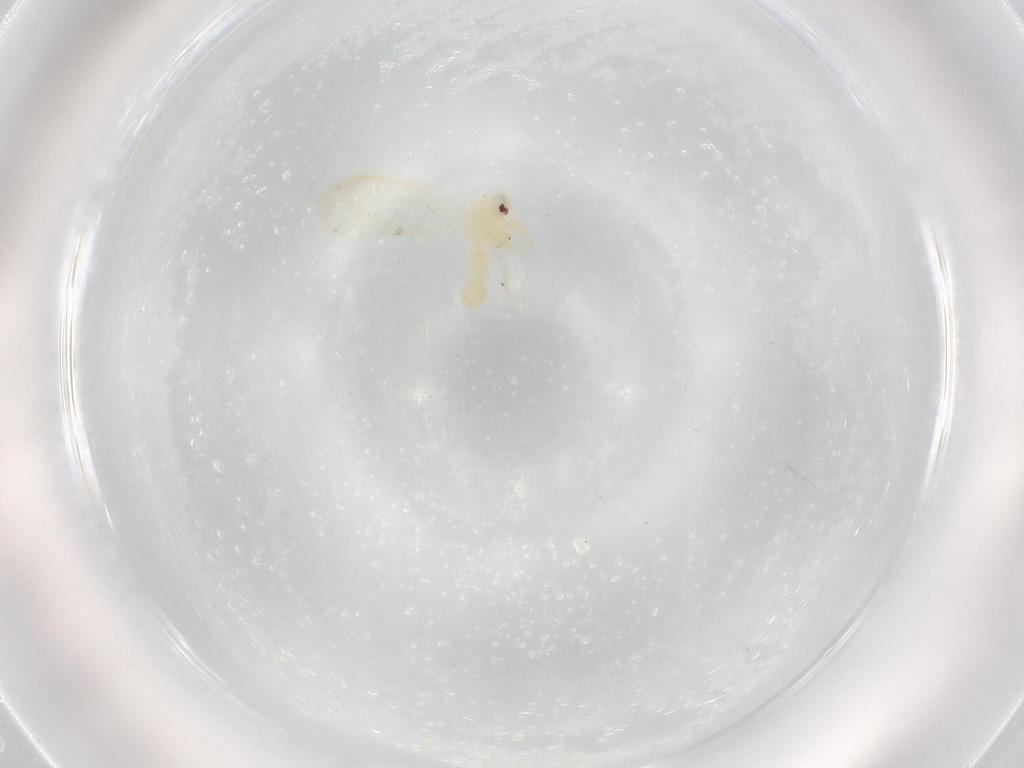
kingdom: Animalia
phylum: Arthropoda
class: Insecta
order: Hemiptera
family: Aleyrodidae
